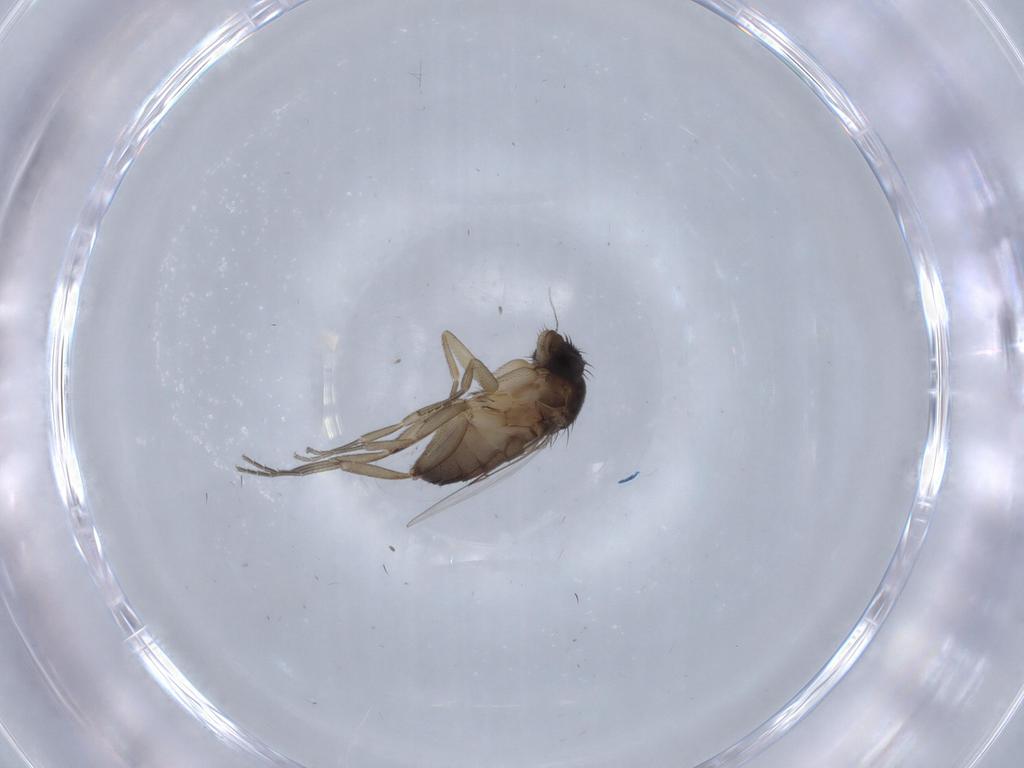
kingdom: Animalia
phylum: Arthropoda
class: Insecta
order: Diptera
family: Phoridae
